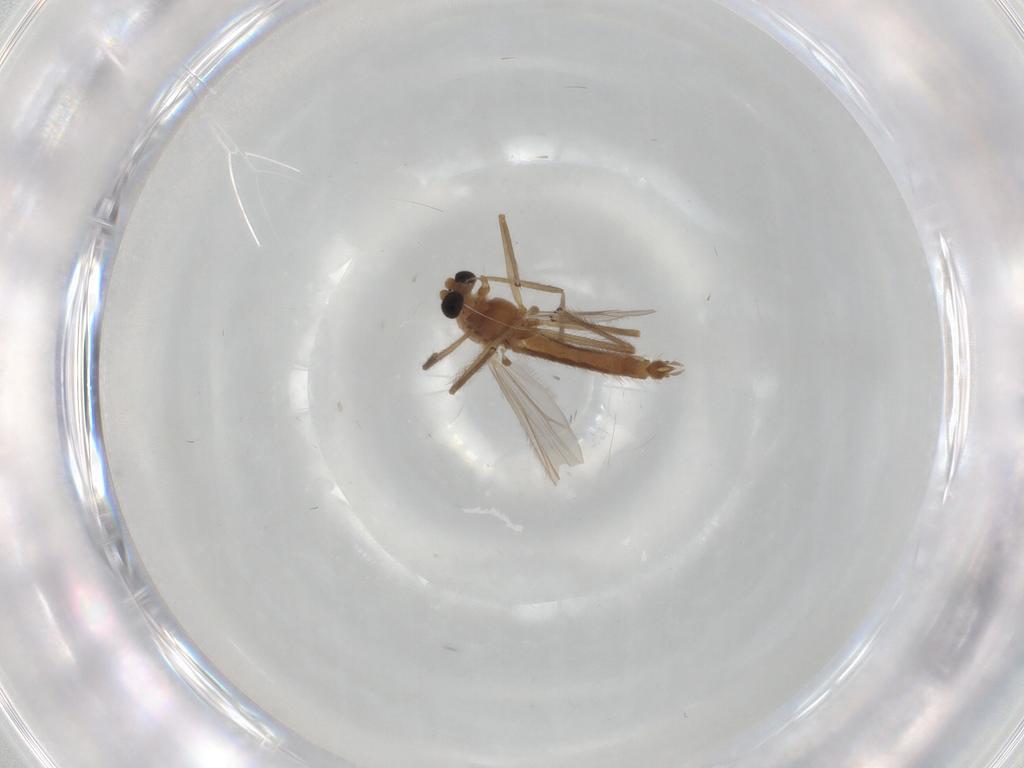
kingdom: Animalia
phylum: Arthropoda
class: Insecta
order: Diptera
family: Chironomidae
